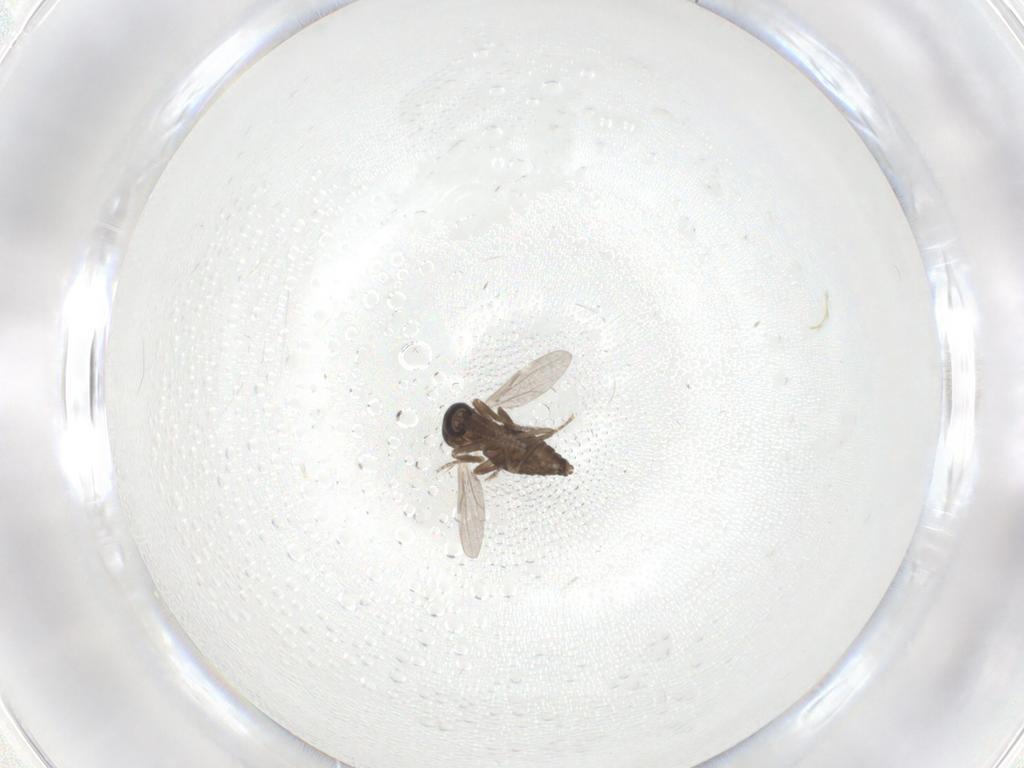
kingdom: Animalia
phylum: Arthropoda
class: Insecta
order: Diptera
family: Ceratopogonidae
